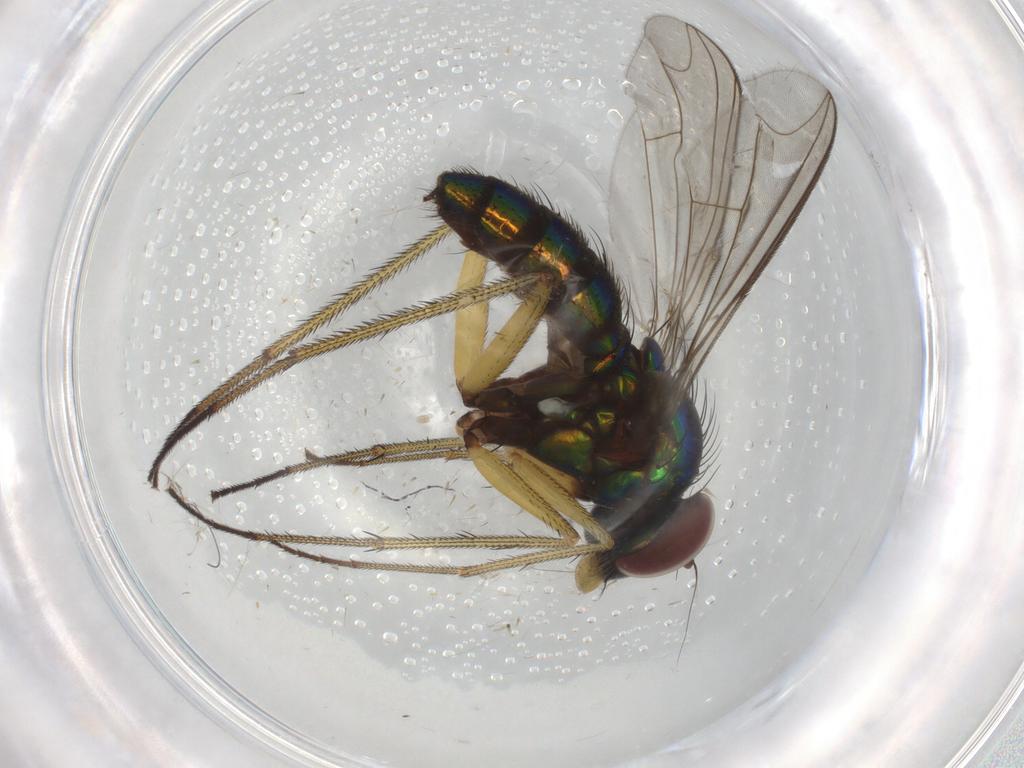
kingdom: Animalia
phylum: Arthropoda
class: Insecta
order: Diptera
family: Dolichopodidae
